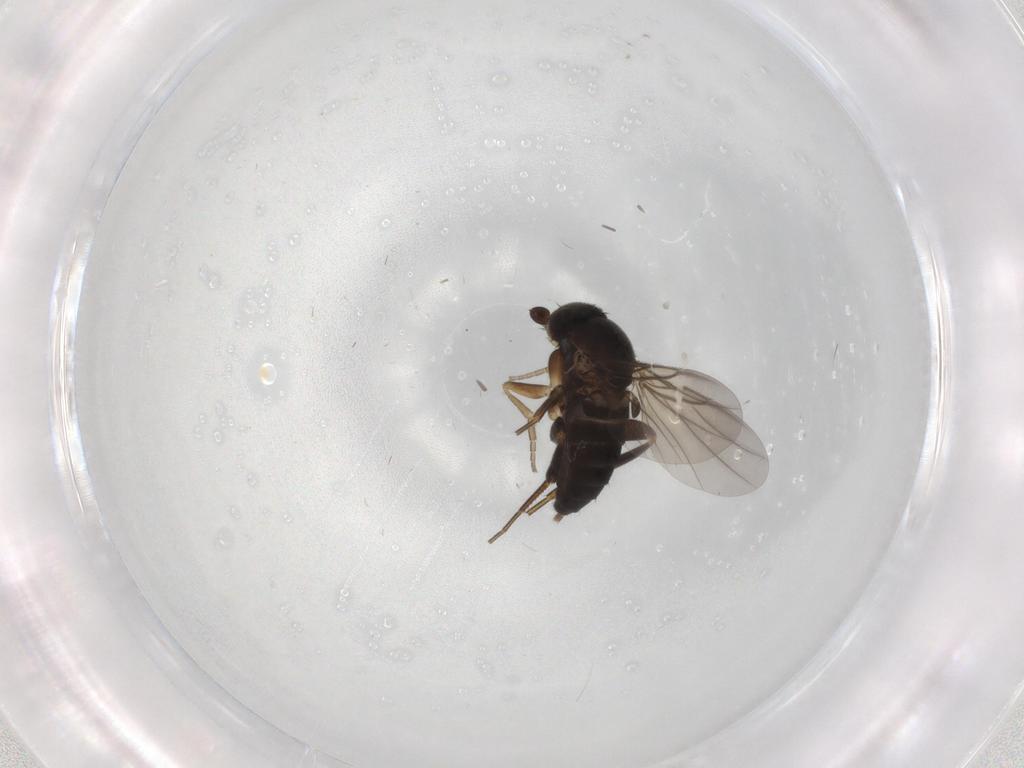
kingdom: Animalia
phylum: Arthropoda
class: Insecta
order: Diptera
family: Phoridae
